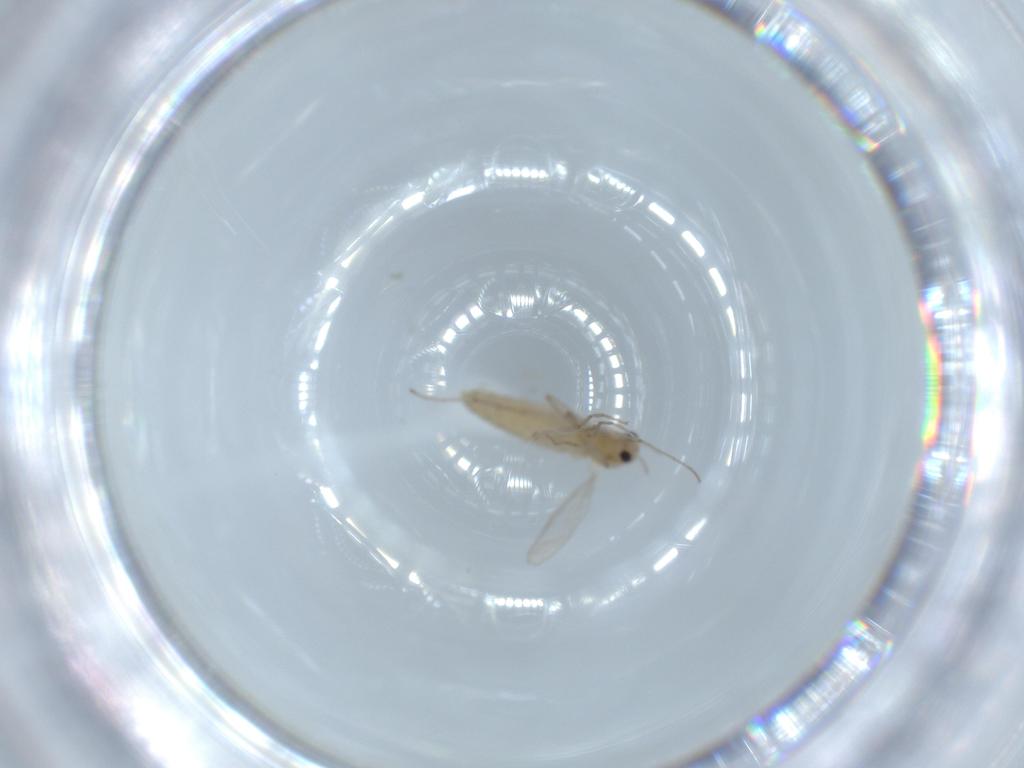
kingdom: Animalia
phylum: Arthropoda
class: Insecta
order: Diptera
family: Chironomidae
